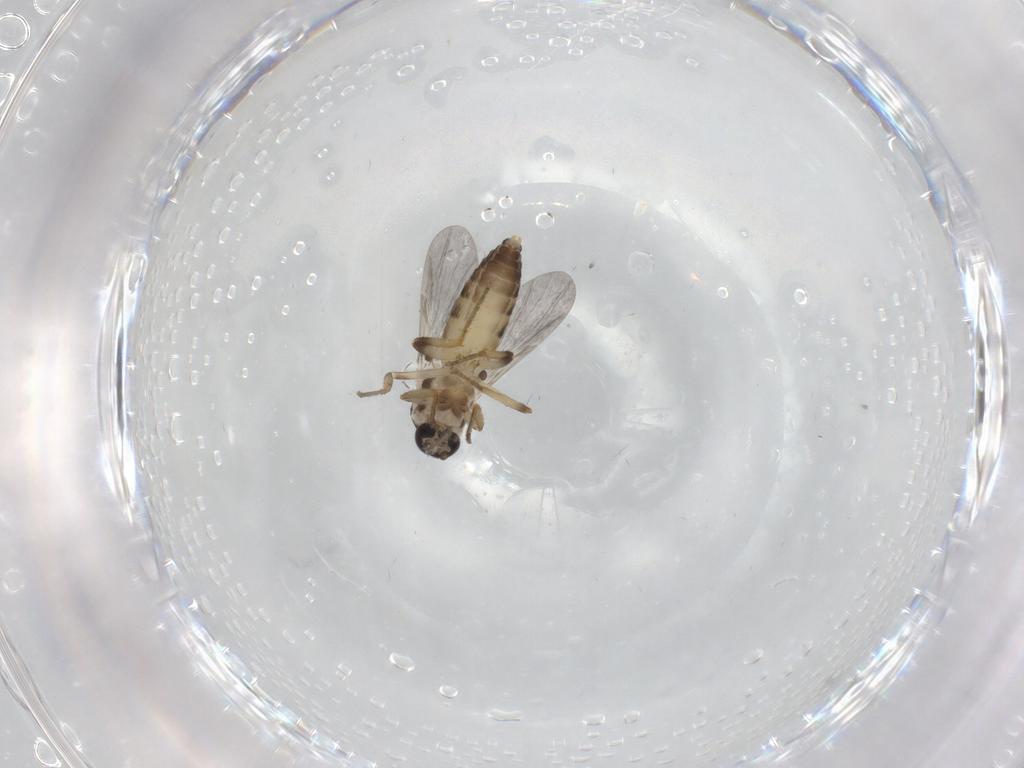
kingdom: Animalia
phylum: Arthropoda
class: Insecta
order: Diptera
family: Ceratopogonidae
